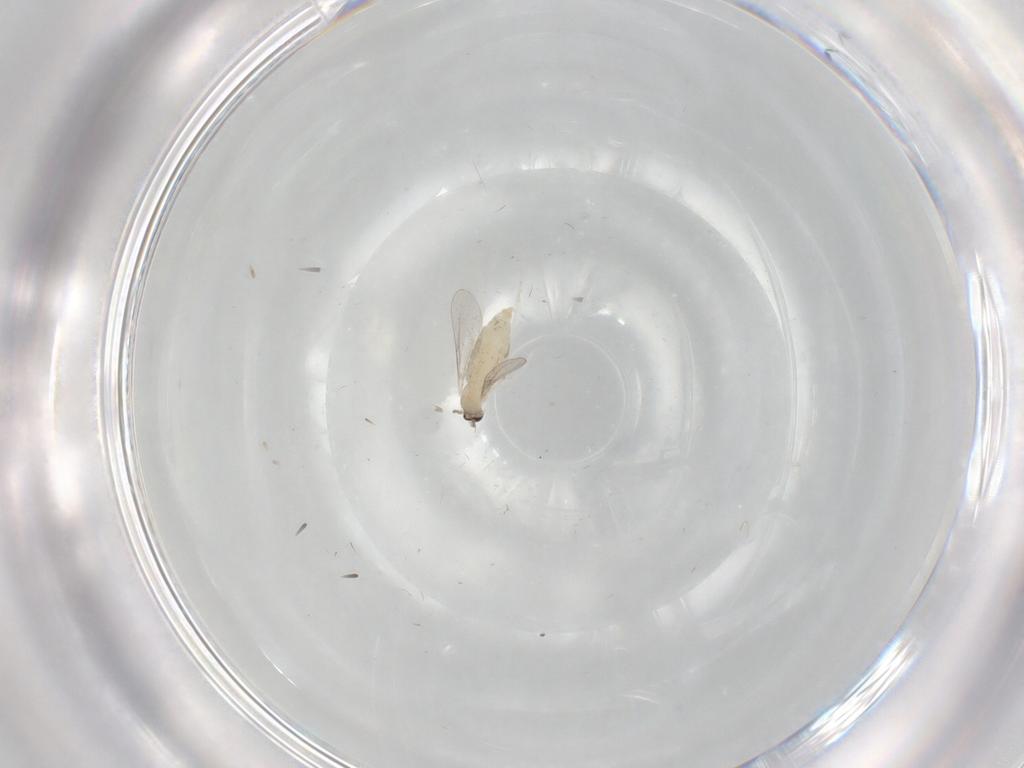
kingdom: Animalia
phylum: Arthropoda
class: Insecta
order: Diptera
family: Cecidomyiidae
